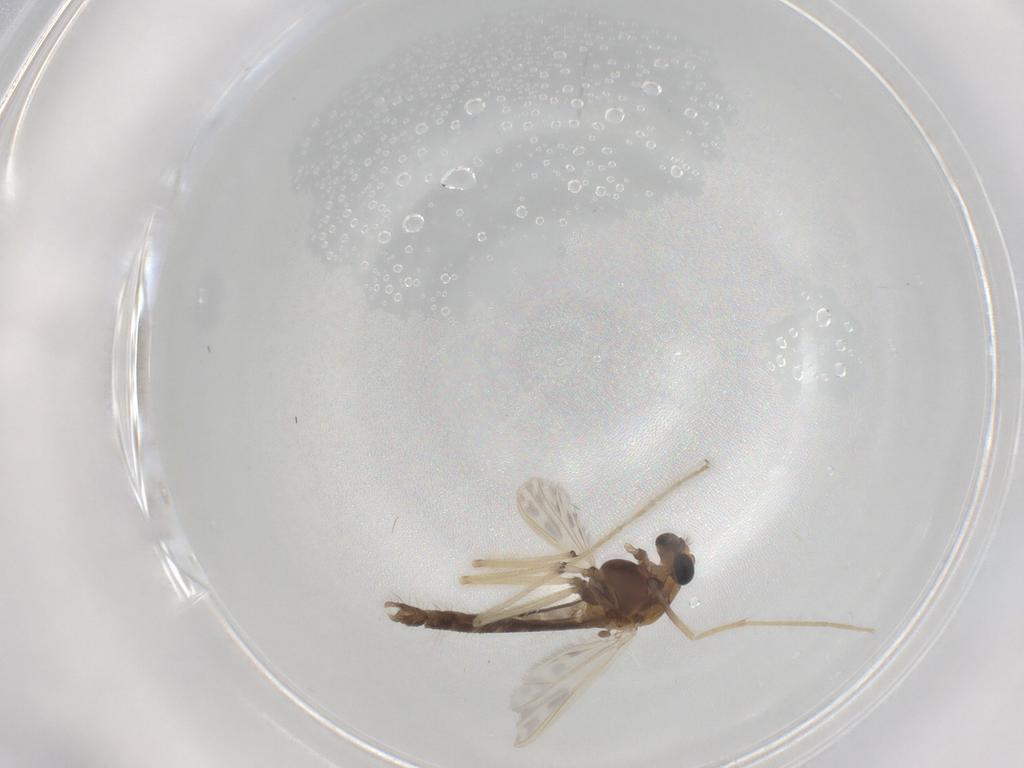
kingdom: Animalia
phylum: Arthropoda
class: Insecta
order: Diptera
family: Chironomidae
